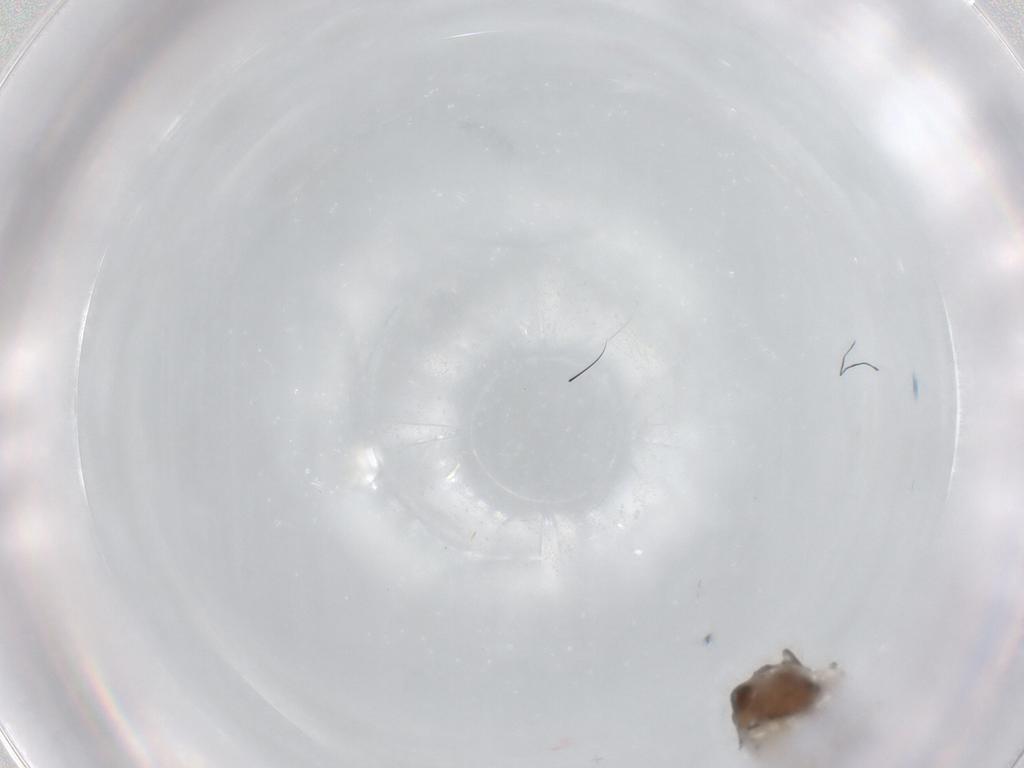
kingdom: Animalia
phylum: Arthropoda
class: Insecta
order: Diptera
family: Ceratopogonidae
